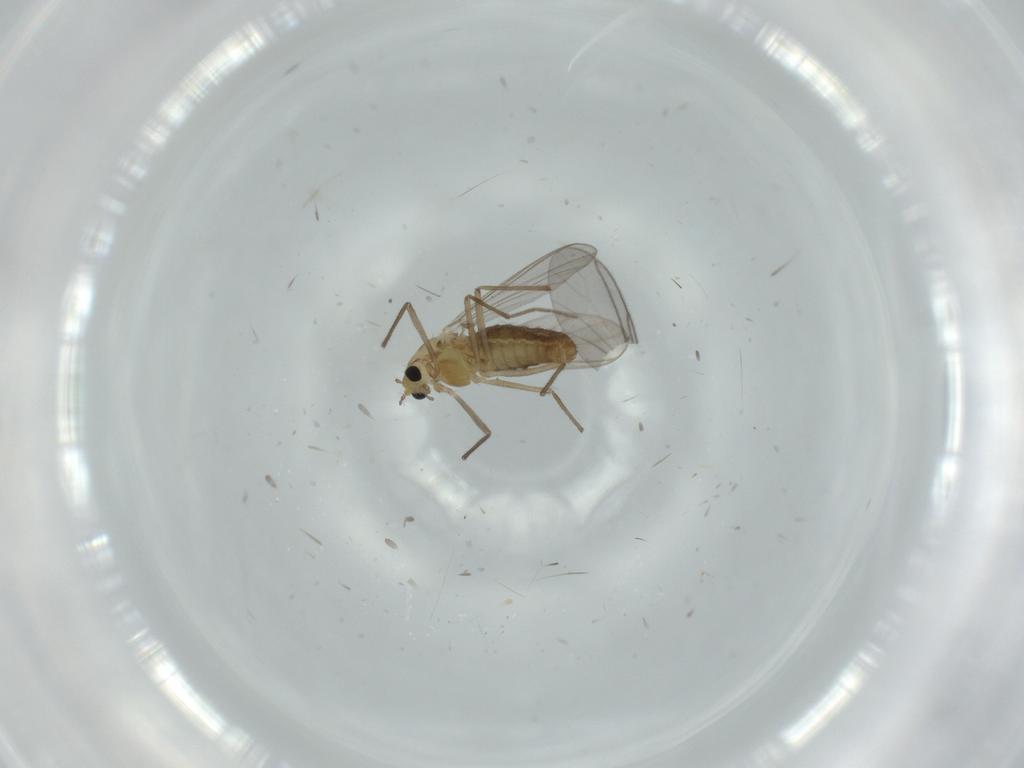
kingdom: Animalia
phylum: Arthropoda
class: Insecta
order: Diptera
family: Chironomidae
